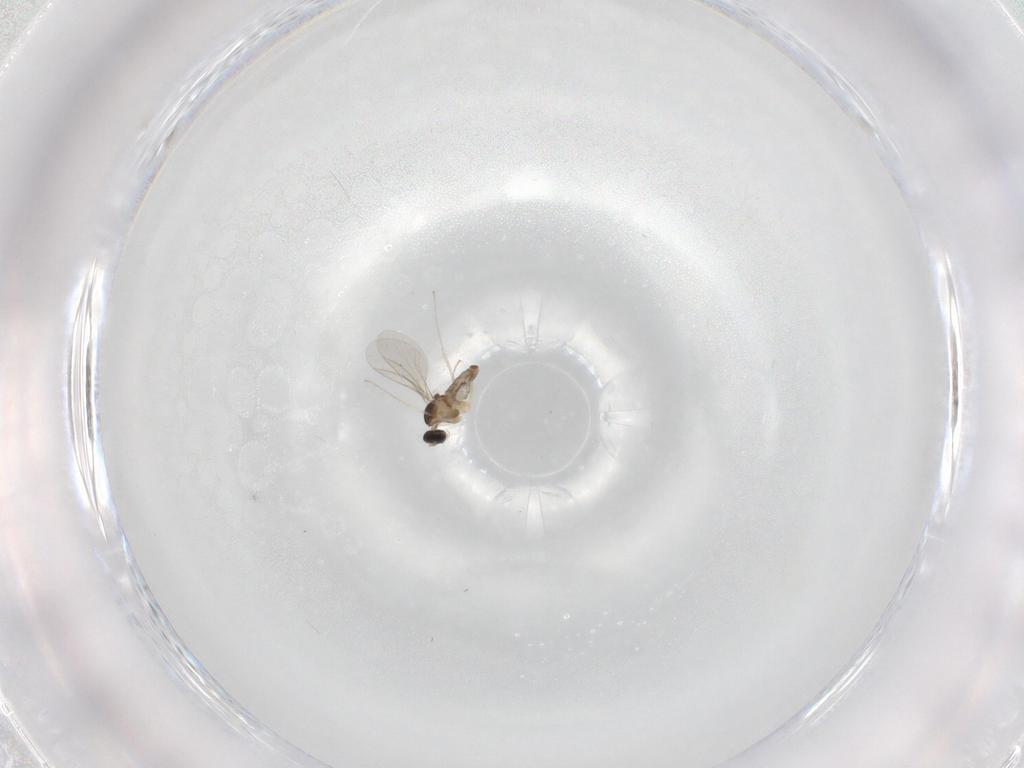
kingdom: Animalia
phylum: Arthropoda
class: Insecta
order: Diptera
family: Cecidomyiidae
